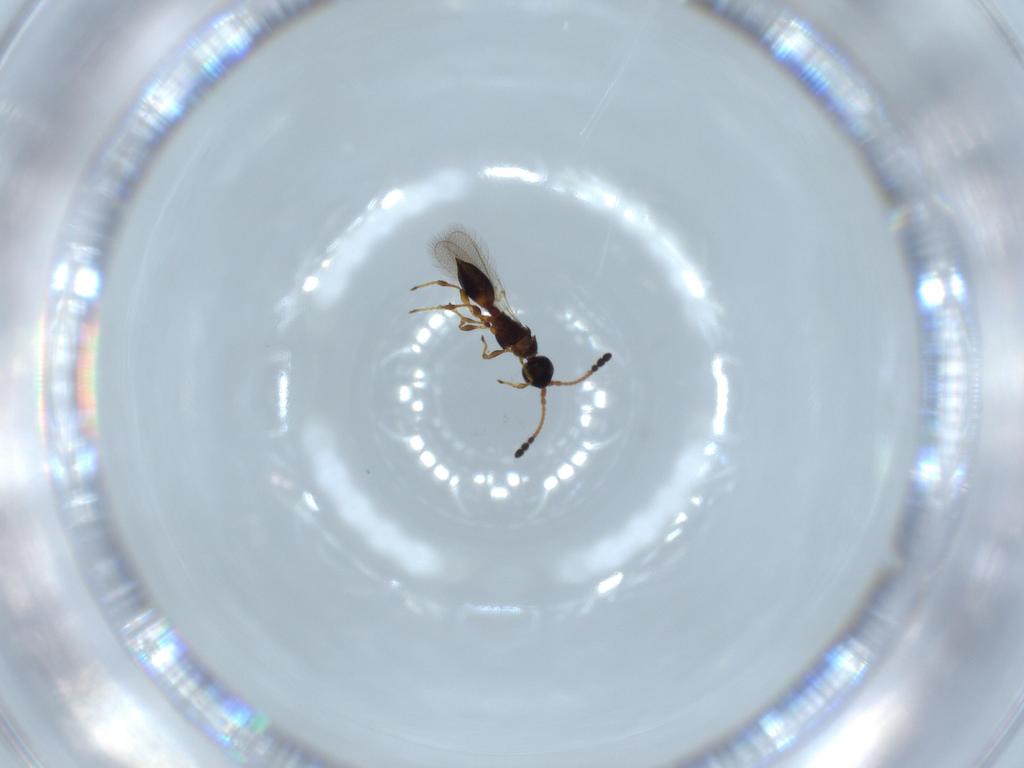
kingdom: Animalia
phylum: Arthropoda
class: Insecta
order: Hymenoptera
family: Diapriidae
